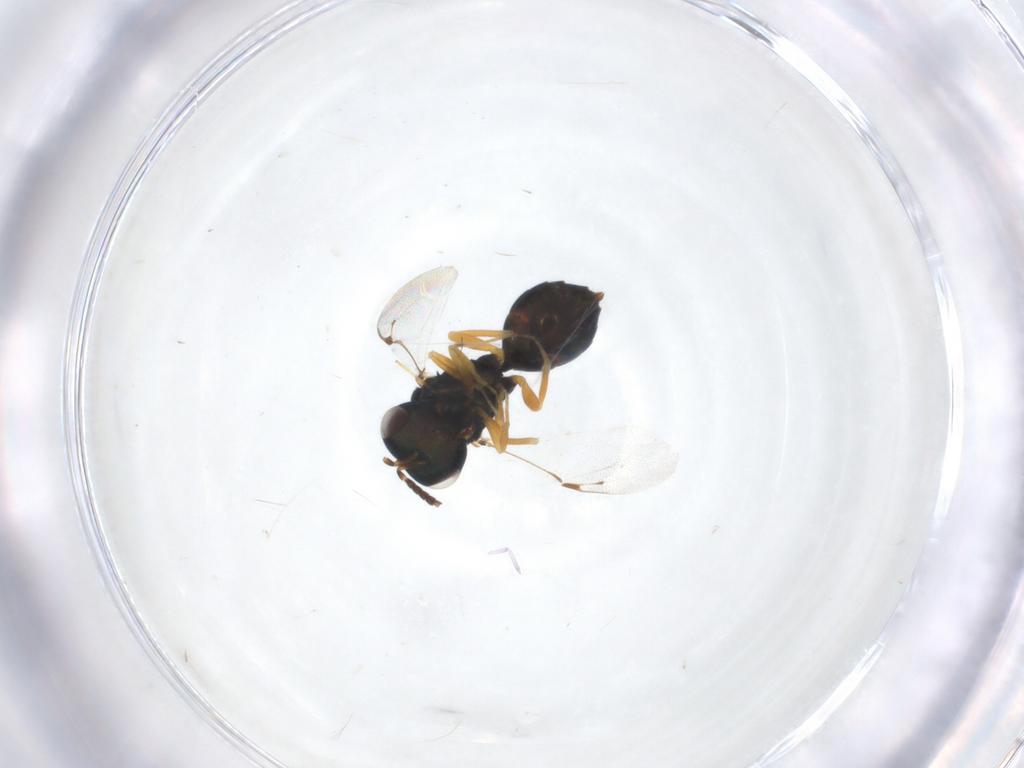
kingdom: Animalia
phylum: Arthropoda
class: Insecta
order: Hymenoptera
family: Pteromalidae
